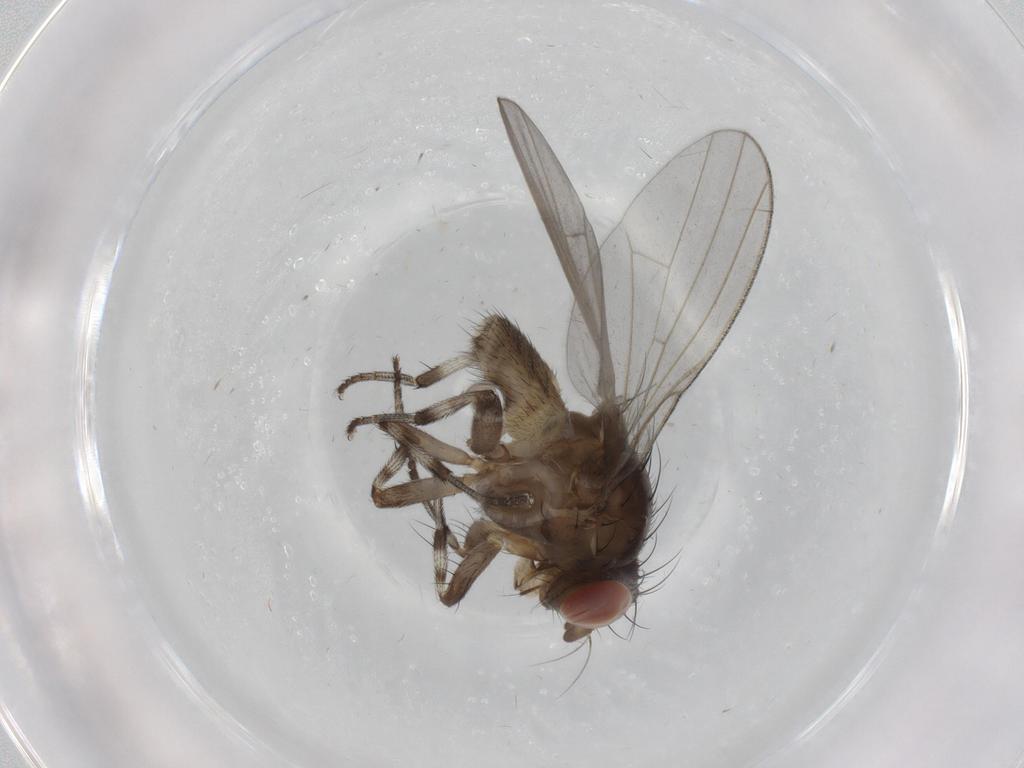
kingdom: Animalia
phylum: Arthropoda
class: Insecta
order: Diptera
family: Lauxaniidae
